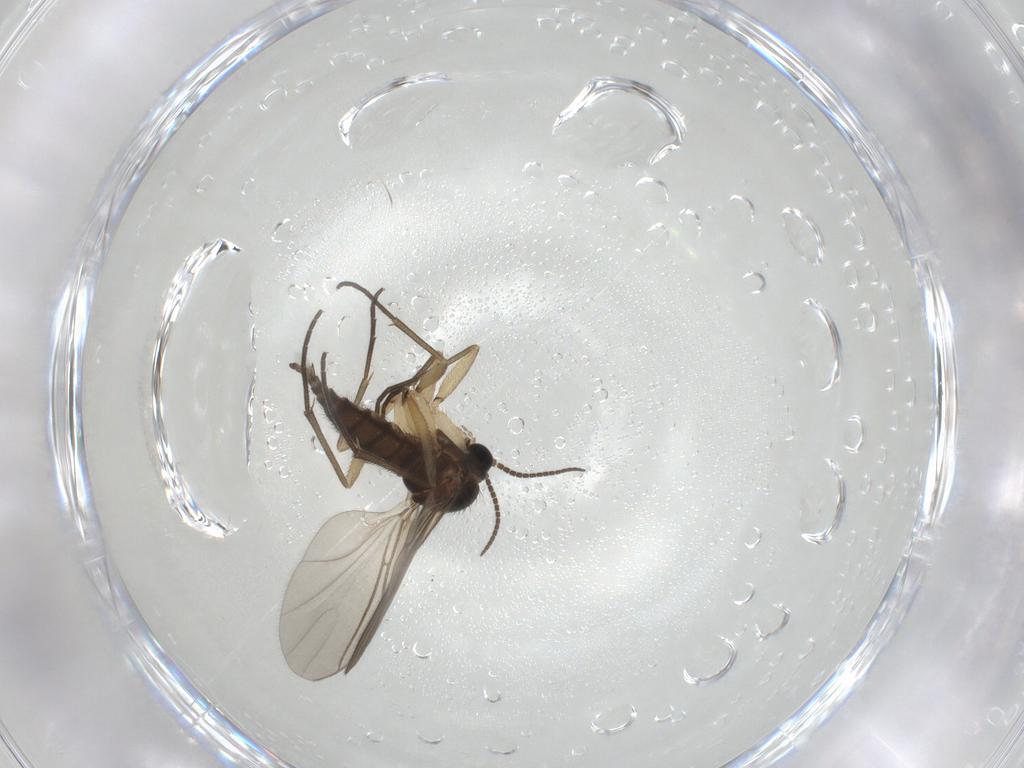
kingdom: Animalia
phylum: Arthropoda
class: Insecta
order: Diptera
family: Sciaridae
